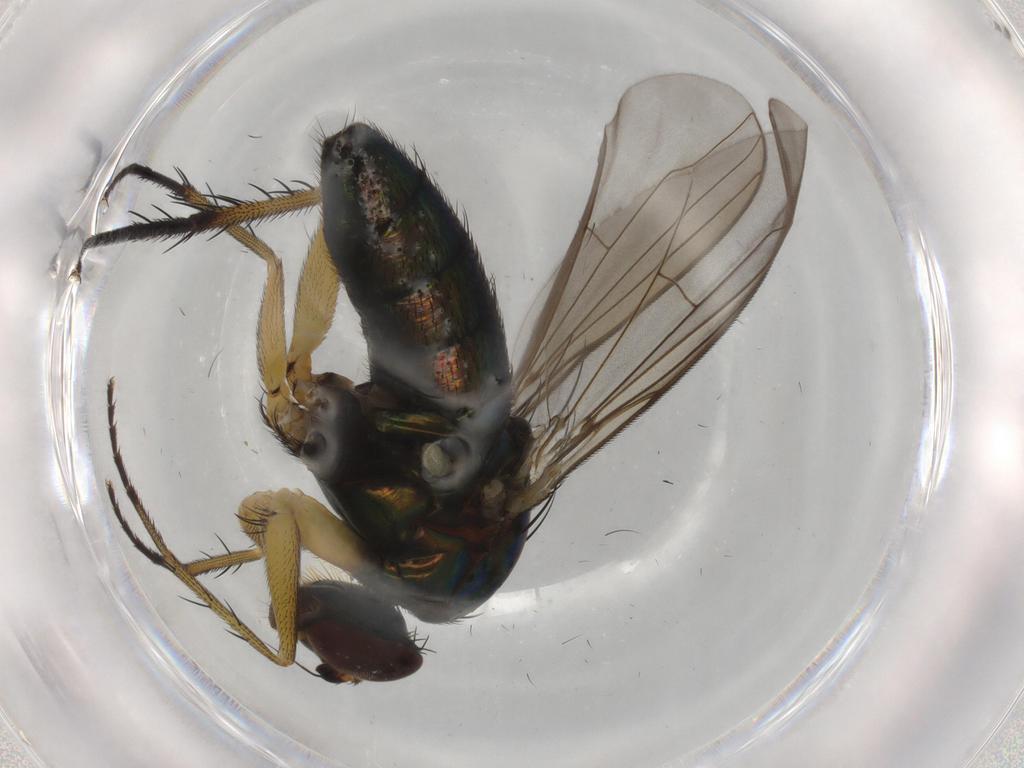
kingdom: Animalia
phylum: Arthropoda
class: Insecta
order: Diptera
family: Dolichopodidae
